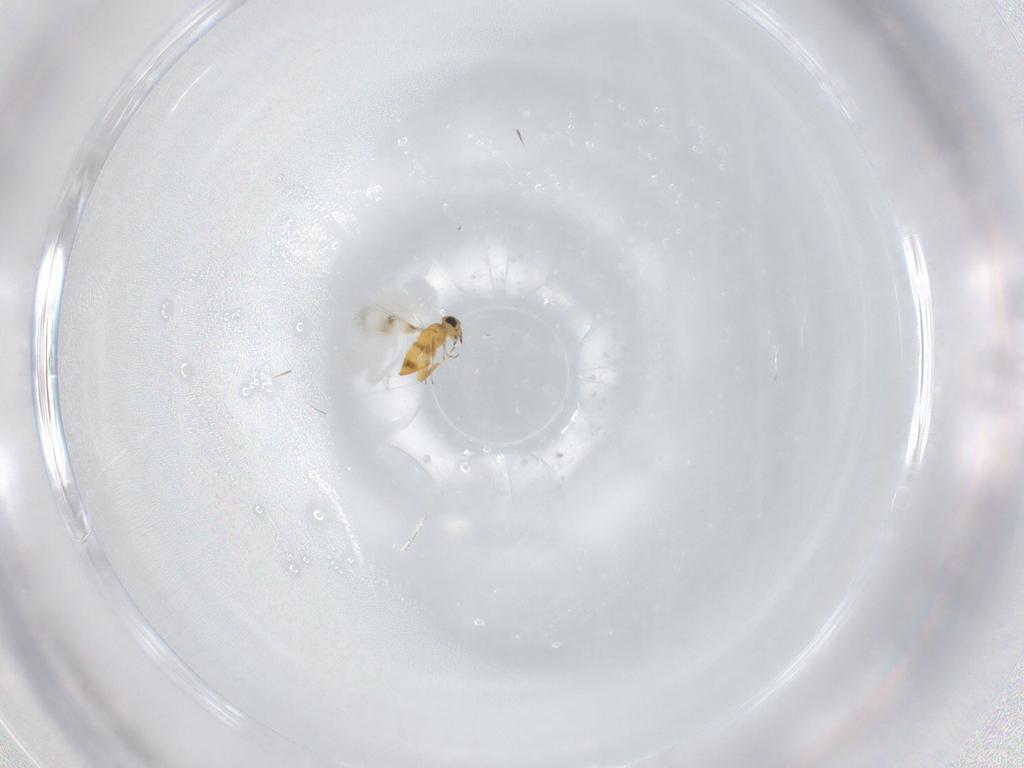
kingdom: Animalia
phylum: Arthropoda
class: Insecta
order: Hymenoptera
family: Aphelinidae
